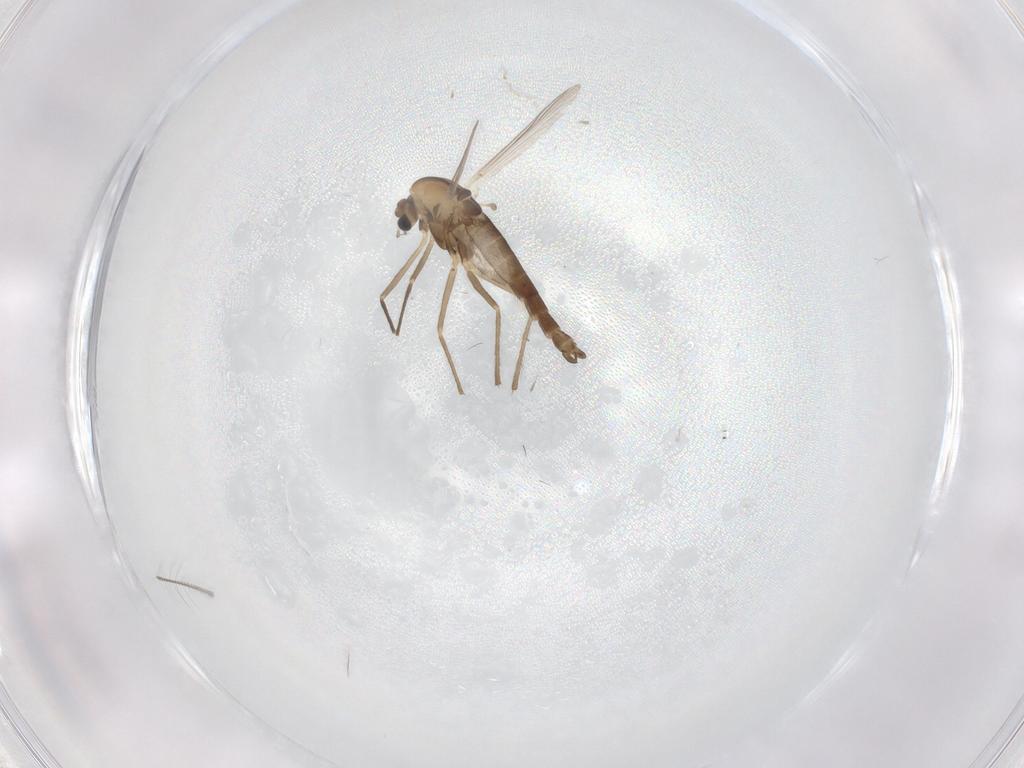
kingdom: Animalia
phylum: Arthropoda
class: Insecta
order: Diptera
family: Chironomidae
